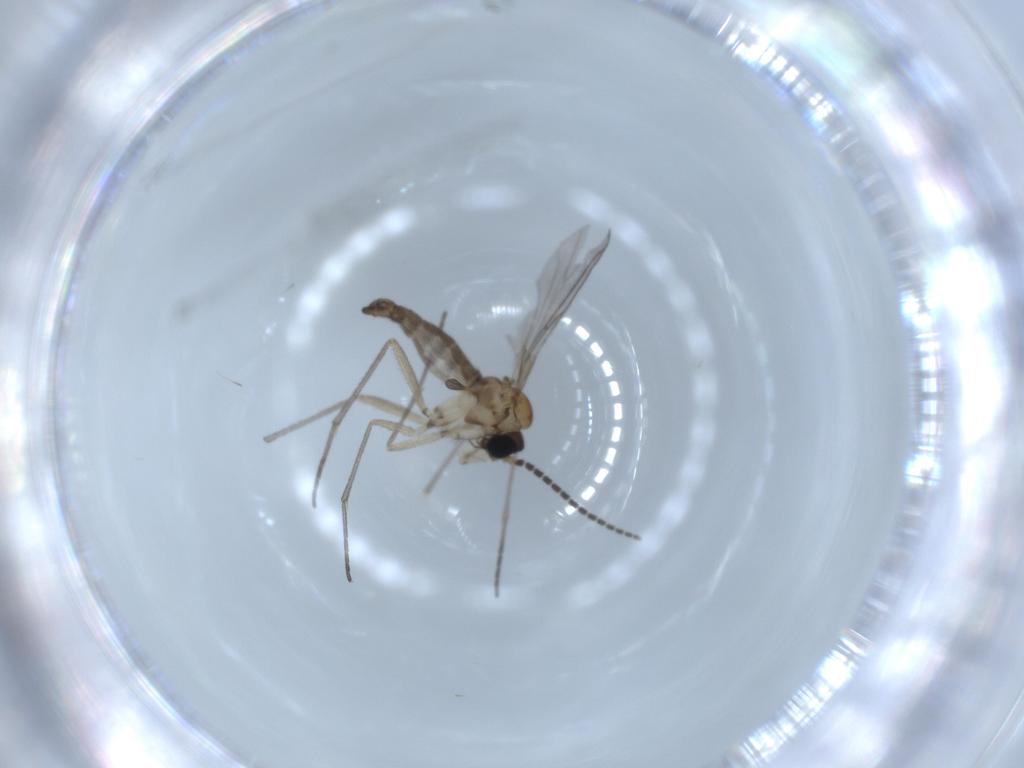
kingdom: Animalia
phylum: Arthropoda
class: Insecta
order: Diptera
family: Sciaridae
